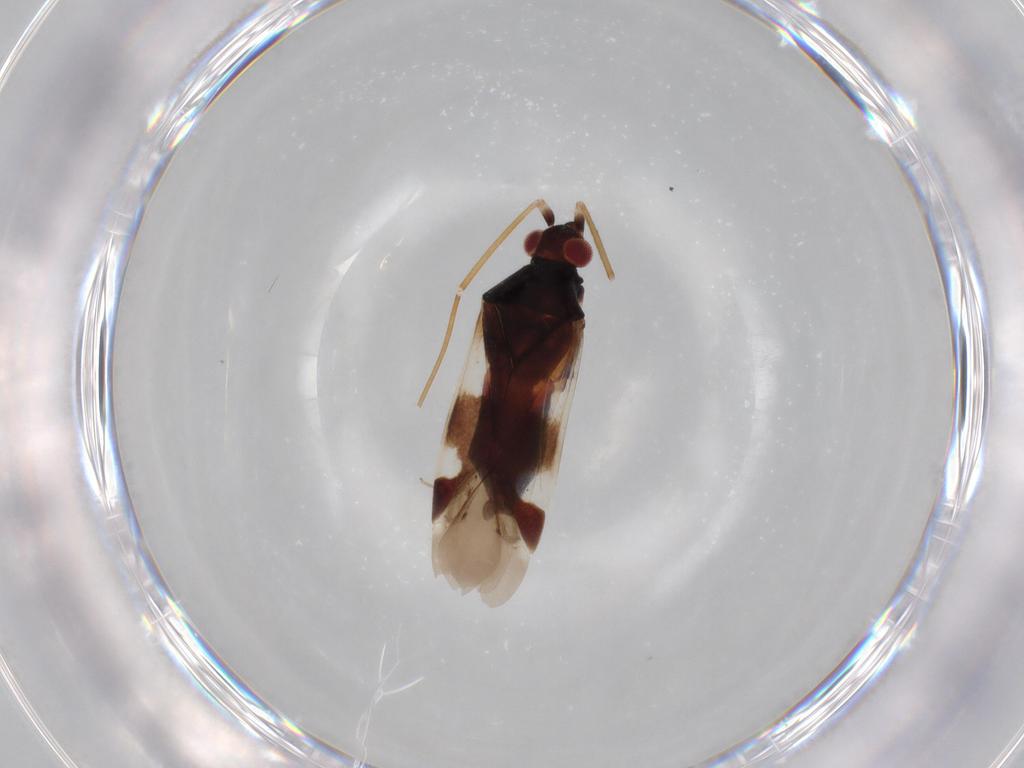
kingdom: Animalia
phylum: Arthropoda
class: Insecta
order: Hemiptera
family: Miridae
